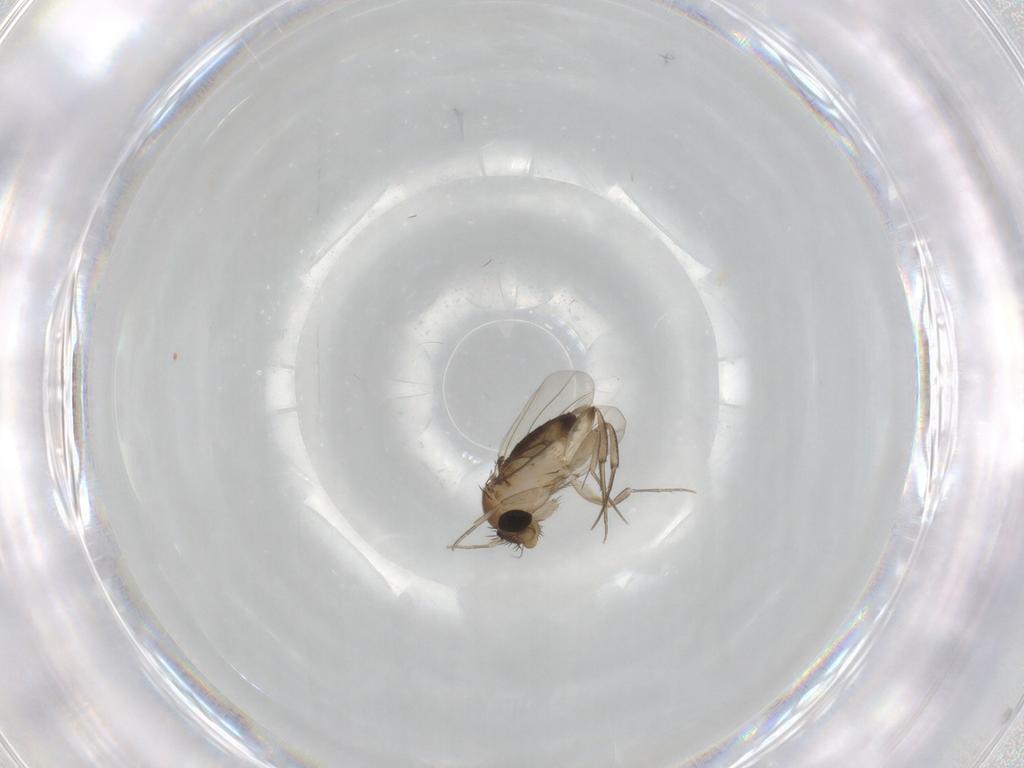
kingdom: Animalia
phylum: Arthropoda
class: Insecta
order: Diptera
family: Phoridae
